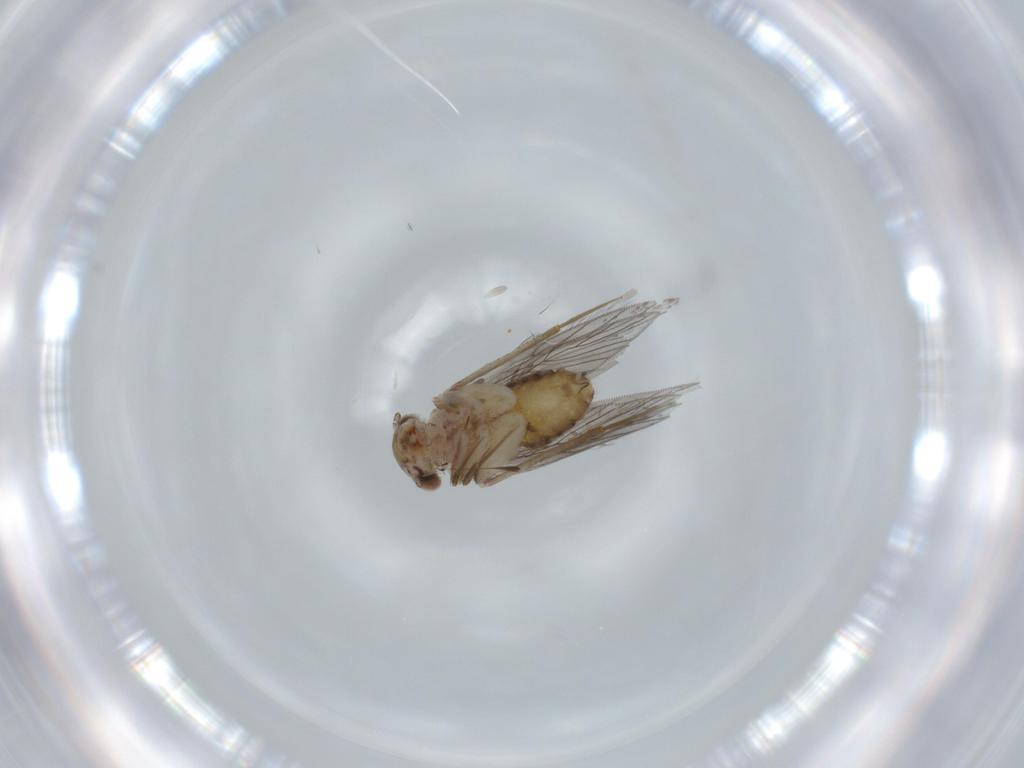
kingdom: Animalia
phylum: Arthropoda
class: Insecta
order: Psocodea
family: Lepidopsocidae
